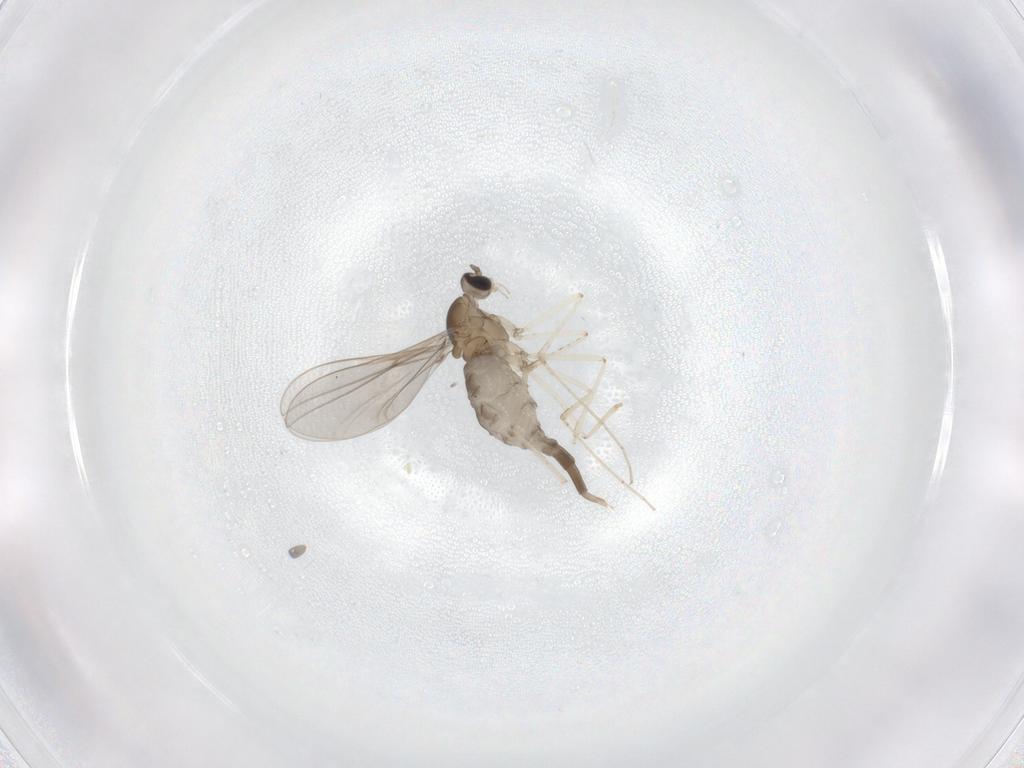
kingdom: Animalia
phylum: Arthropoda
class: Insecta
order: Diptera
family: Cecidomyiidae
